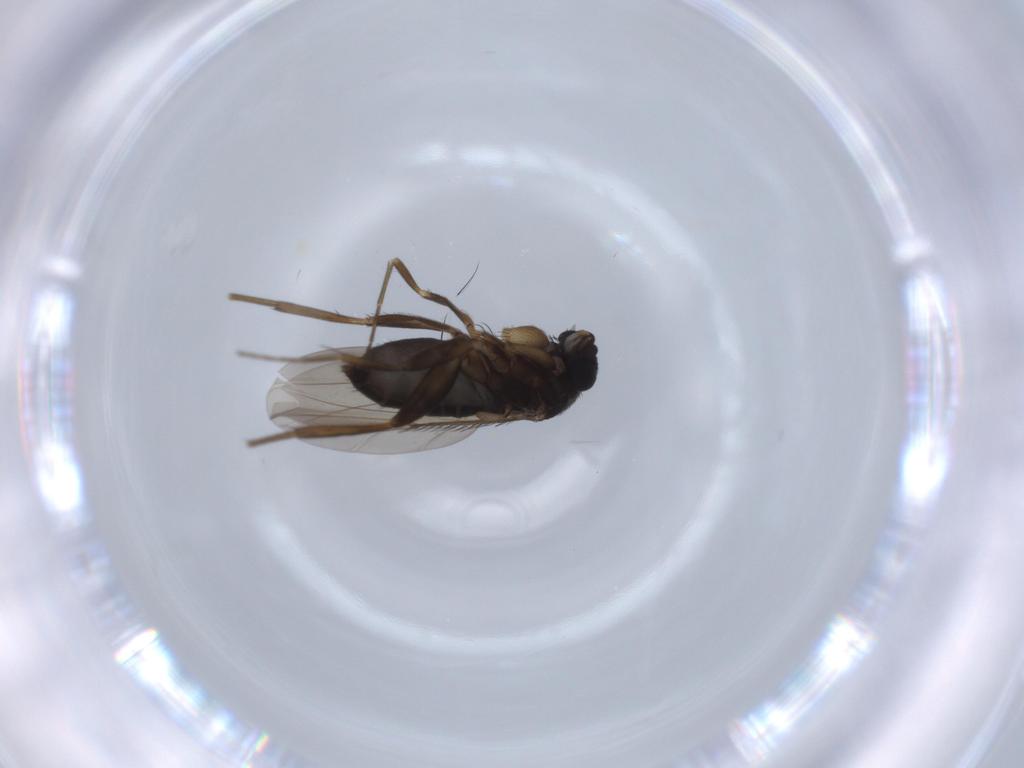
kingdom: Animalia
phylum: Arthropoda
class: Insecta
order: Diptera
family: Phoridae
